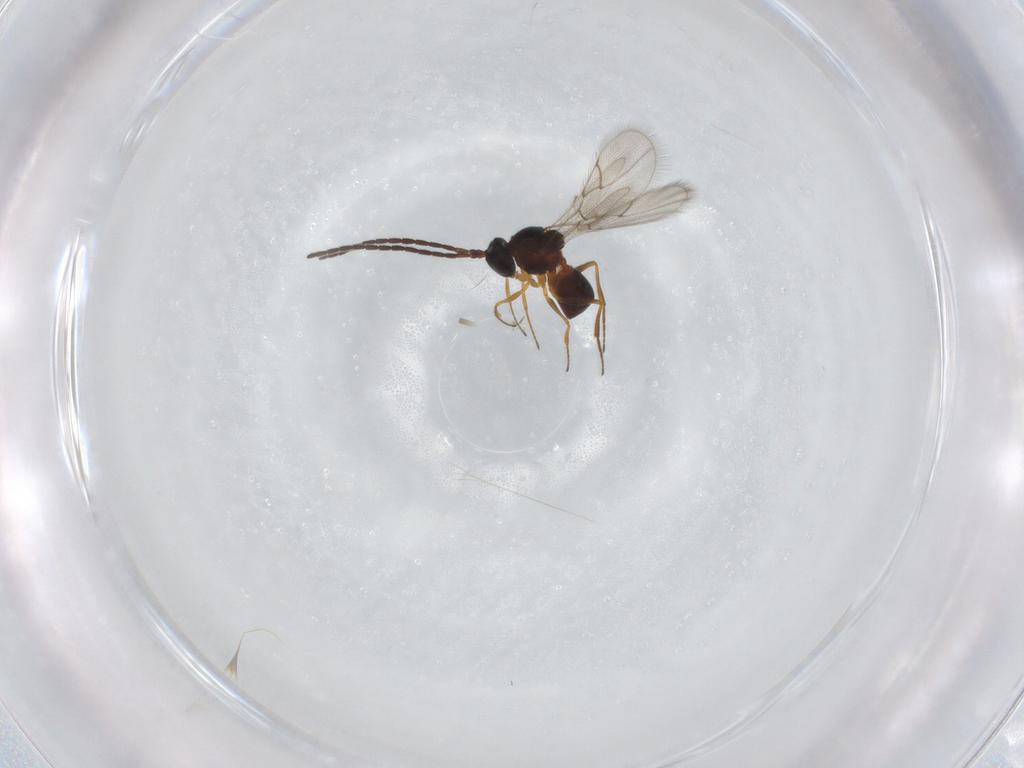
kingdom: Animalia
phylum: Arthropoda
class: Insecta
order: Hymenoptera
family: Figitidae
